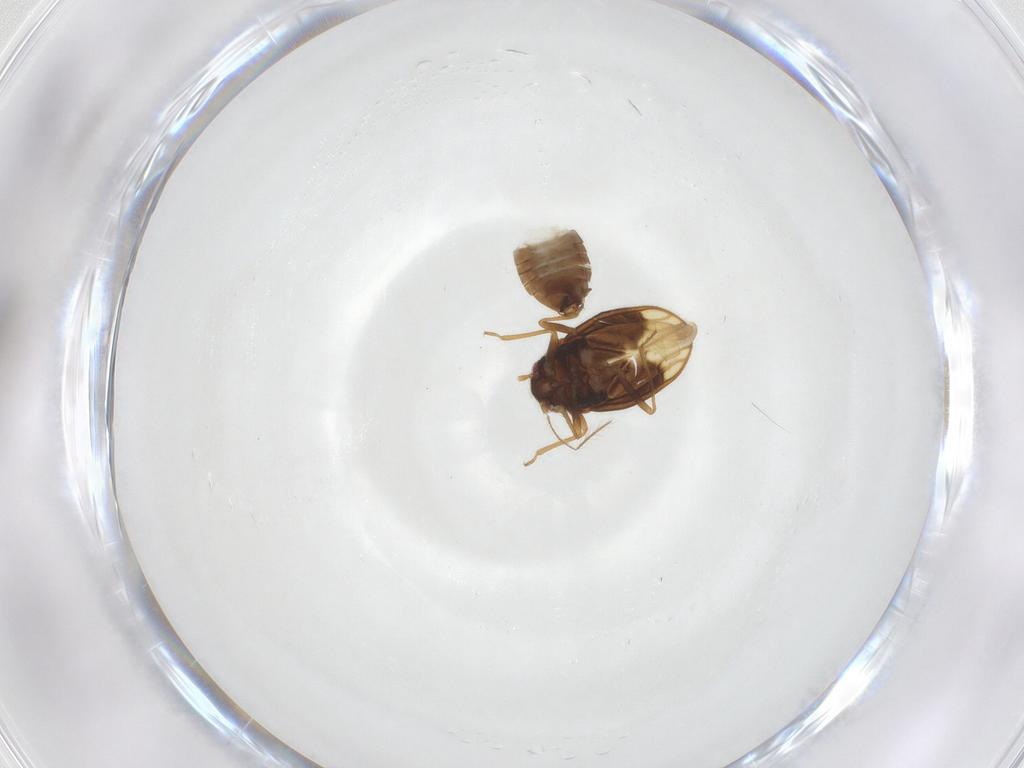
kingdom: Animalia
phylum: Arthropoda
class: Insecta
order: Hemiptera
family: Schizopteridae
